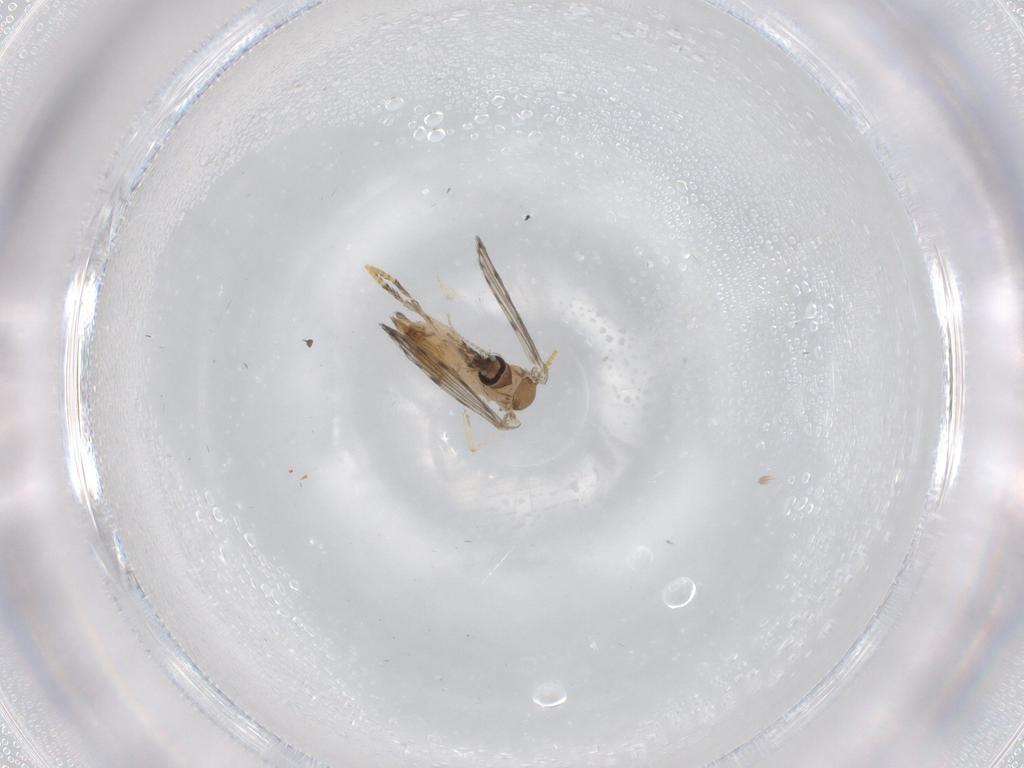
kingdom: Animalia
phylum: Arthropoda
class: Insecta
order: Diptera
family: Psychodidae
